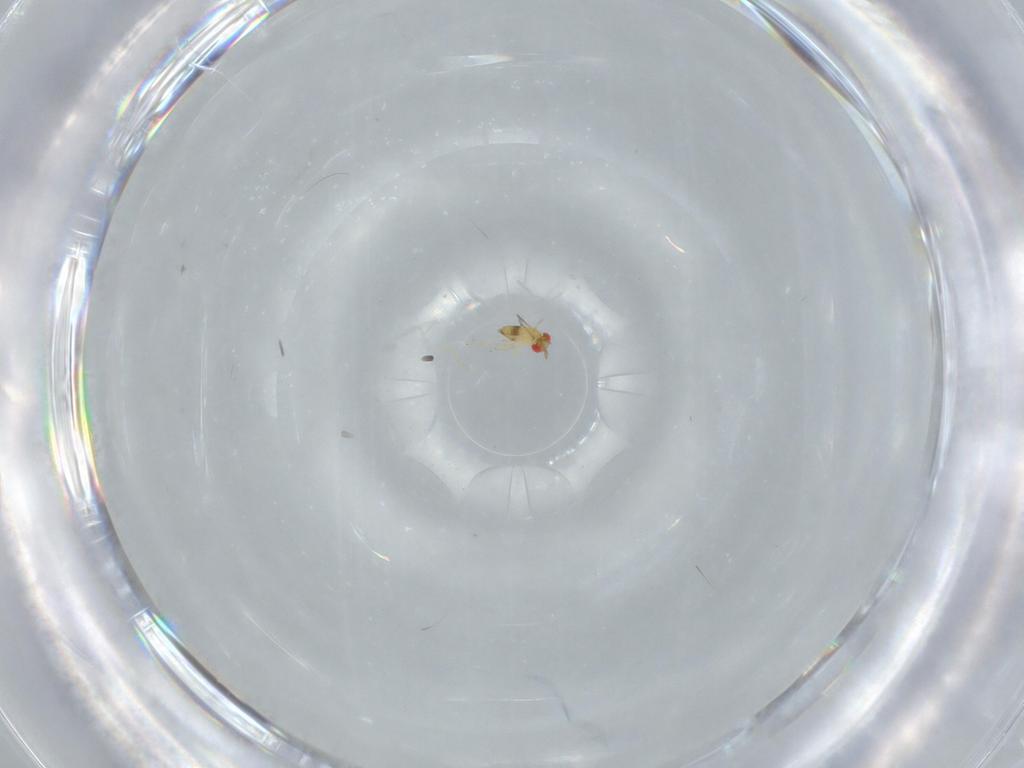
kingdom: Animalia
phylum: Arthropoda
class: Insecta
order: Hymenoptera
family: Trichogrammatidae
